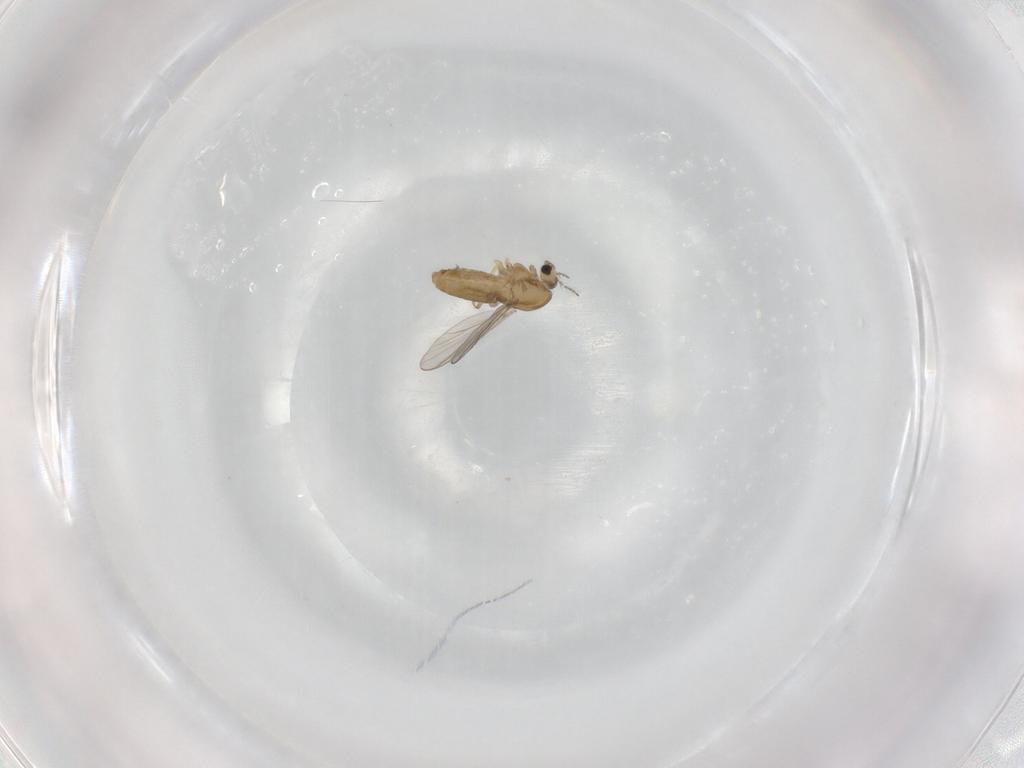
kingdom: Animalia
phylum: Arthropoda
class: Insecta
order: Diptera
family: Chironomidae
